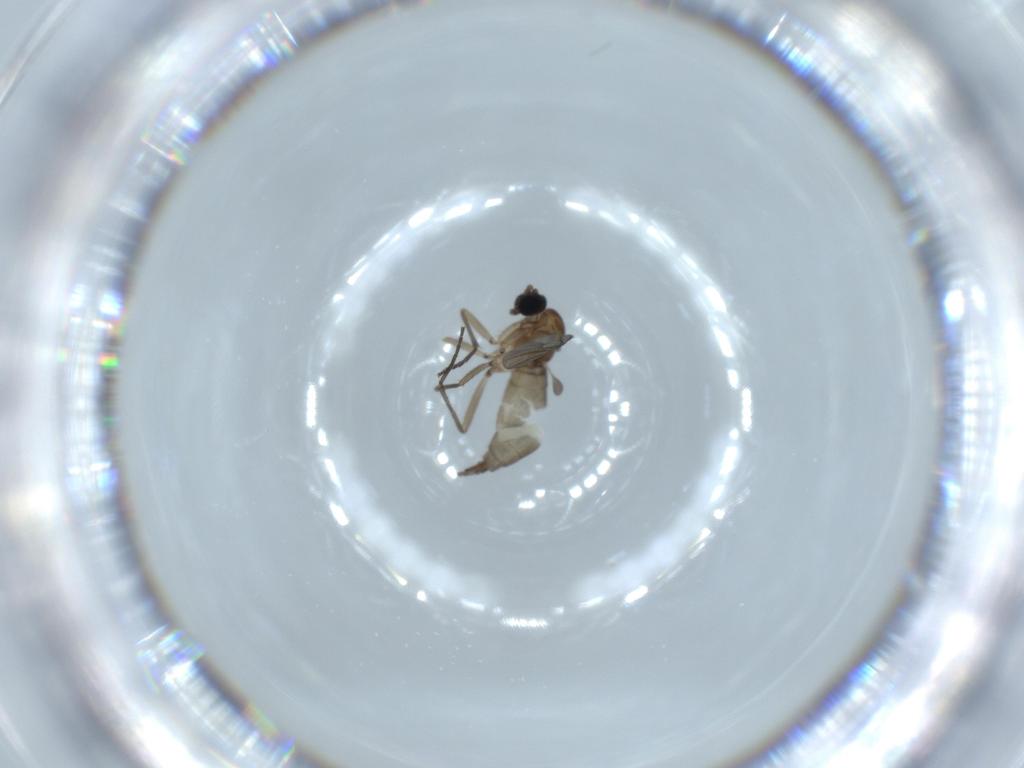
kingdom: Animalia
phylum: Arthropoda
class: Insecta
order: Diptera
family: Sciaridae
